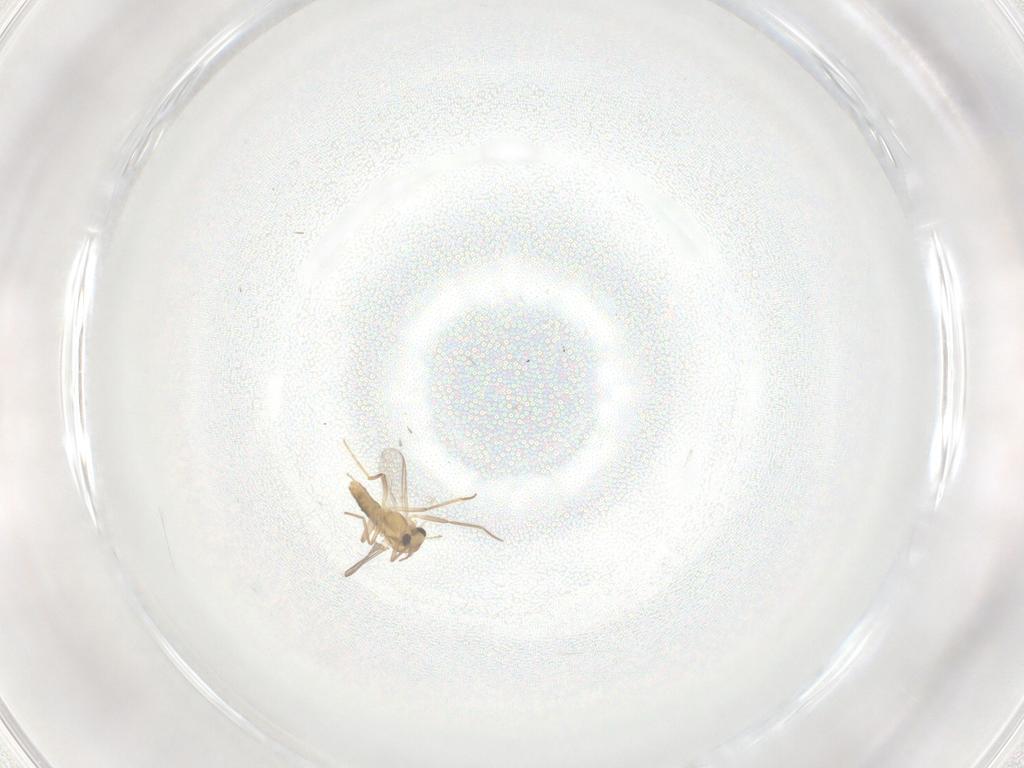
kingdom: Animalia
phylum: Arthropoda
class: Insecta
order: Diptera
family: Chironomidae
